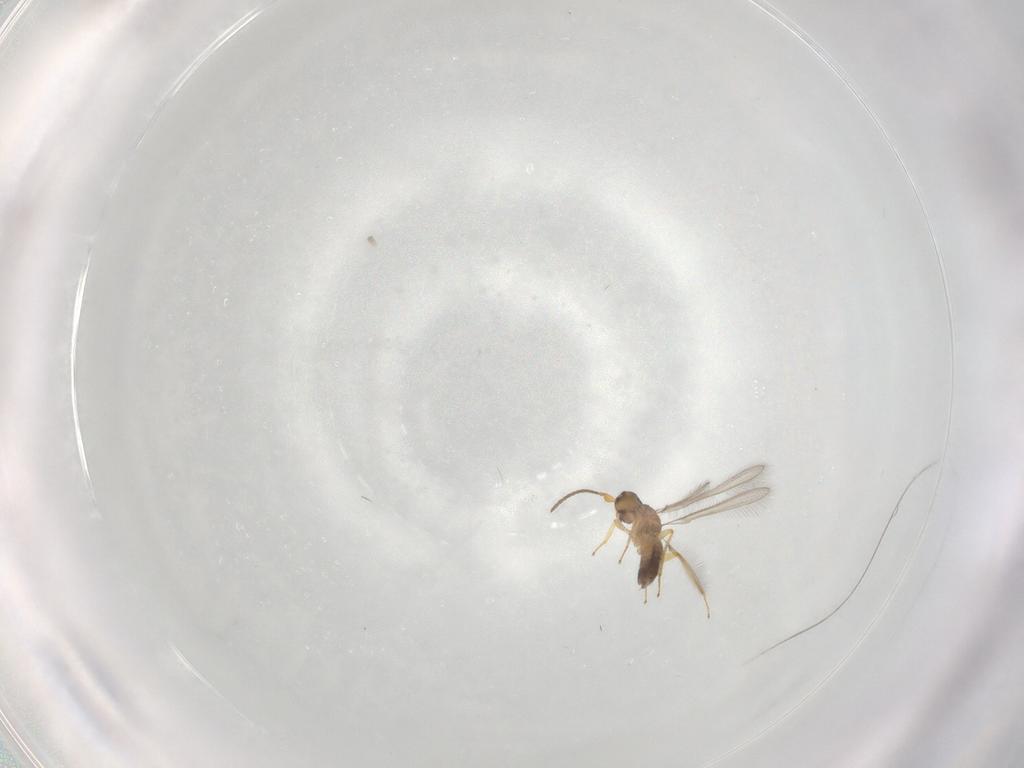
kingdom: Animalia
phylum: Arthropoda
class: Insecta
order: Hymenoptera
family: Mymaridae
